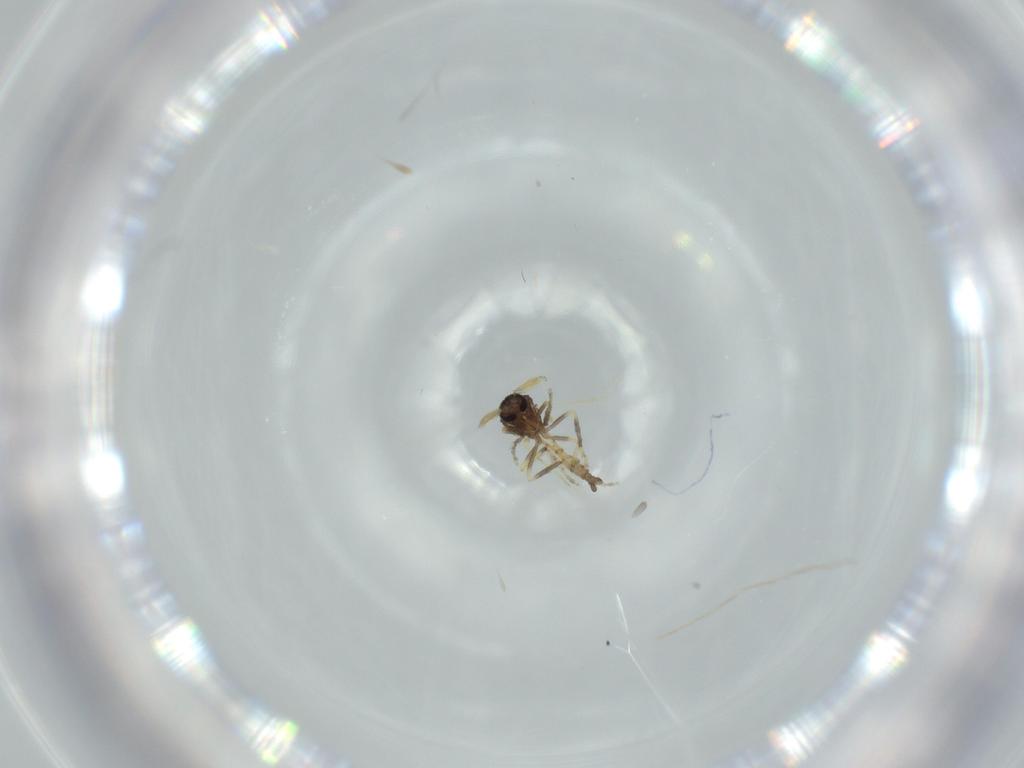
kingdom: Animalia
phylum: Arthropoda
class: Insecta
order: Diptera
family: Ceratopogonidae
